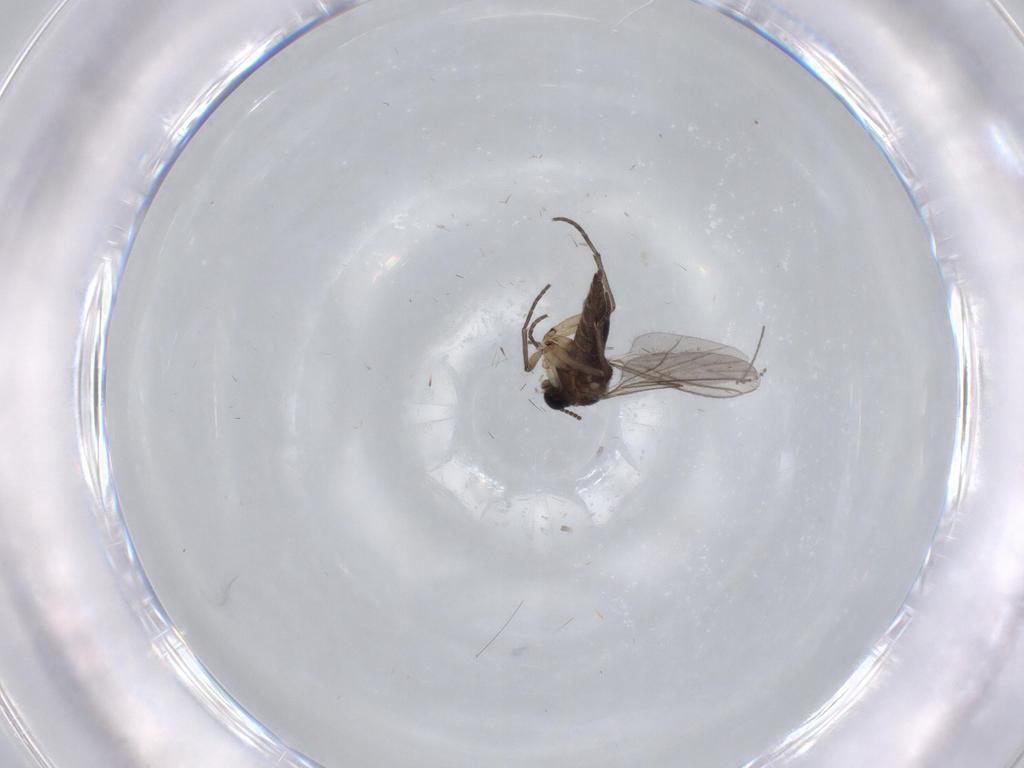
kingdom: Animalia
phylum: Arthropoda
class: Insecta
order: Diptera
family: Sciaridae
